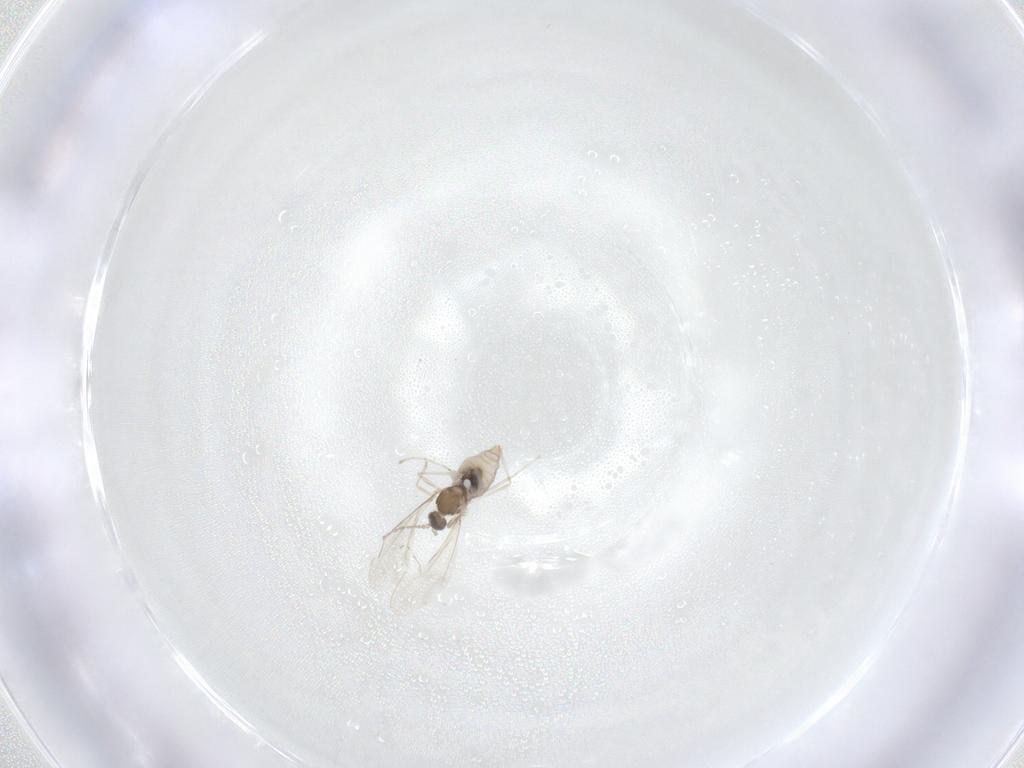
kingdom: Animalia
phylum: Arthropoda
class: Insecta
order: Diptera
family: Cecidomyiidae
